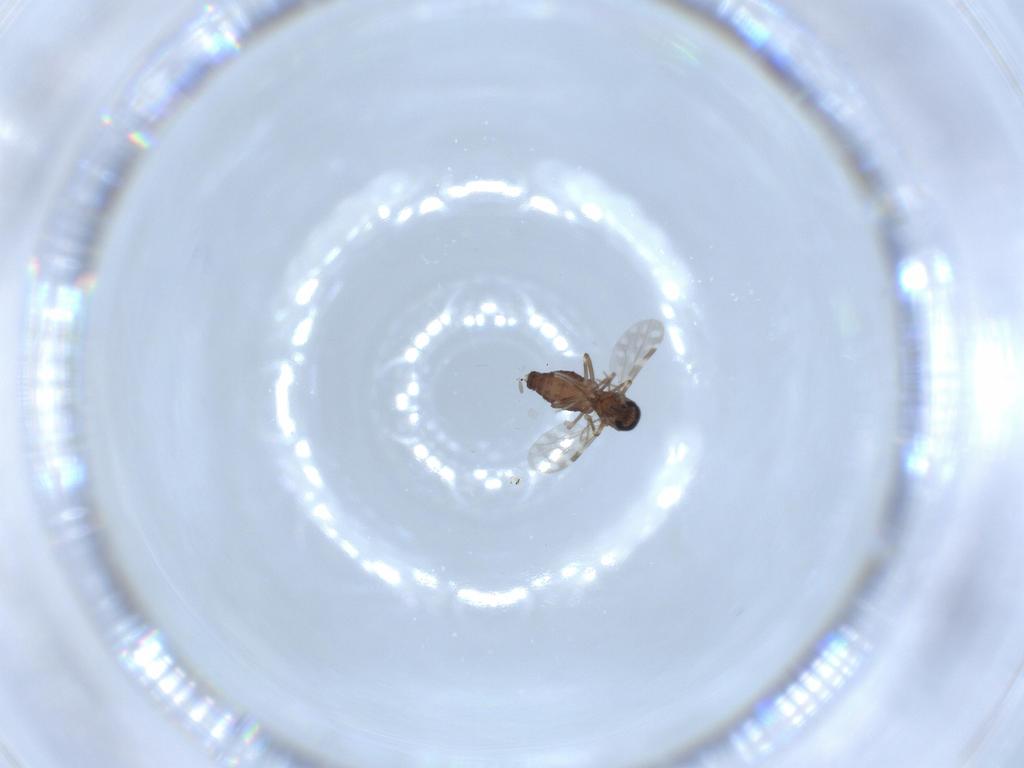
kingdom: Animalia
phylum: Arthropoda
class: Insecta
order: Diptera
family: Ceratopogonidae
